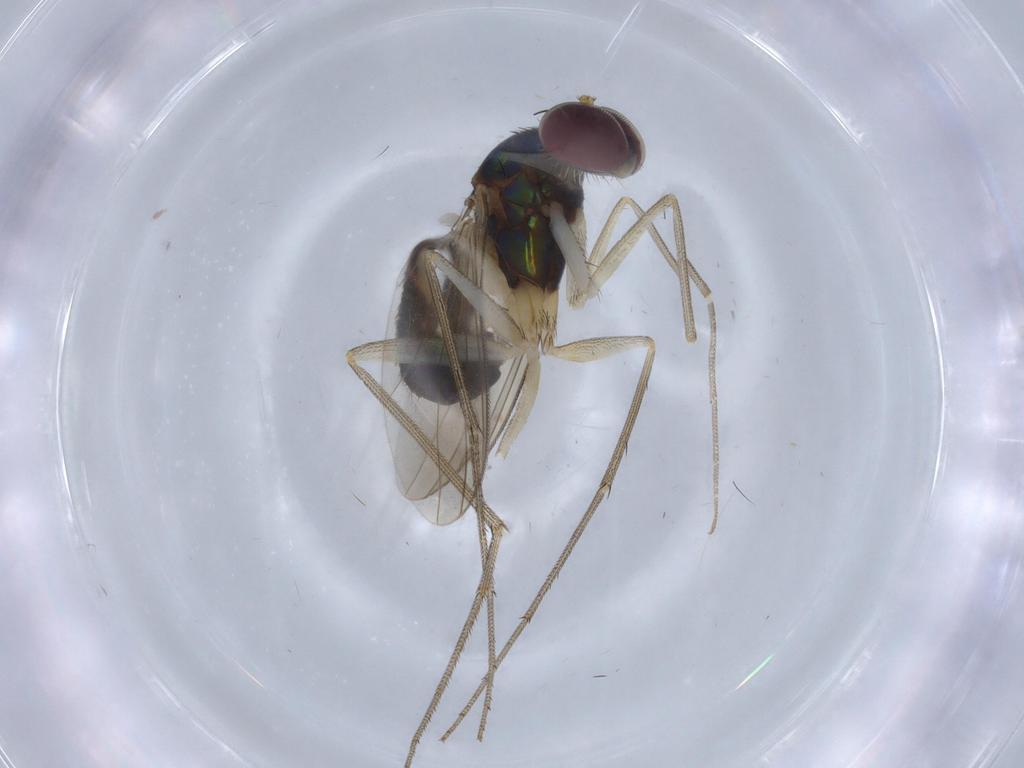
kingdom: Animalia
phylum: Arthropoda
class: Insecta
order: Diptera
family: Dolichopodidae
